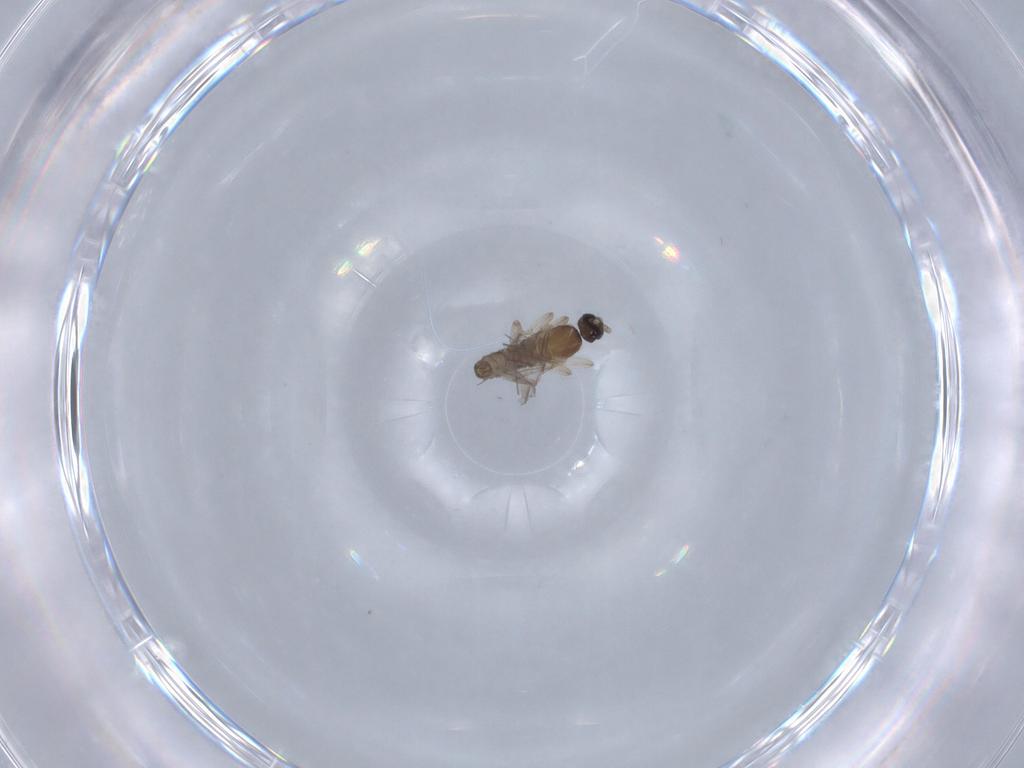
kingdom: Animalia
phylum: Arthropoda
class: Insecta
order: Diptera
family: Cecidomyiidae
